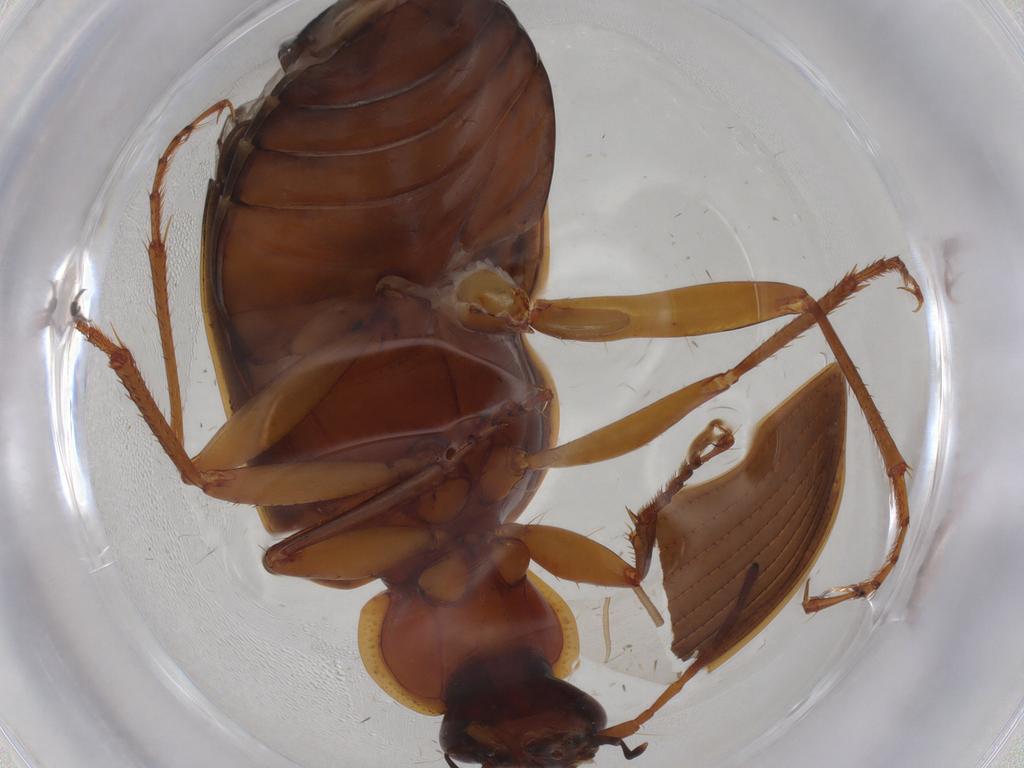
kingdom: Animalia
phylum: Arthropoda
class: Insecta
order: Coleoptera
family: Carabidae
